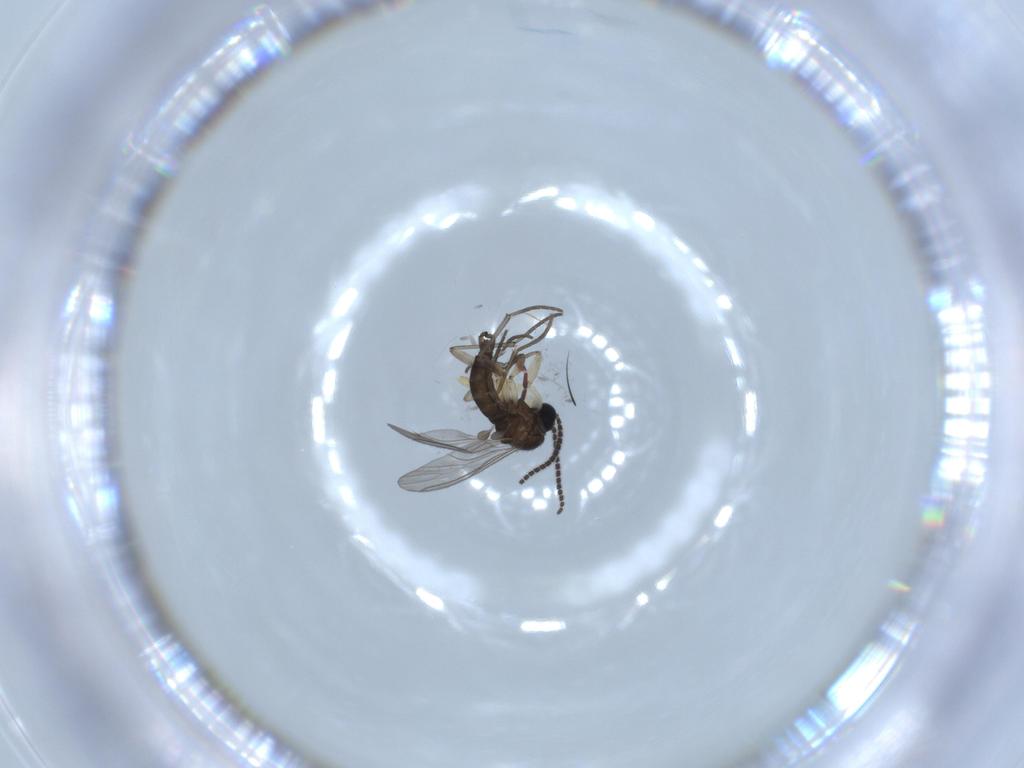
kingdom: Animalia
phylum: Arthropoda
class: Insecta
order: Diptera
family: Sciaridae
